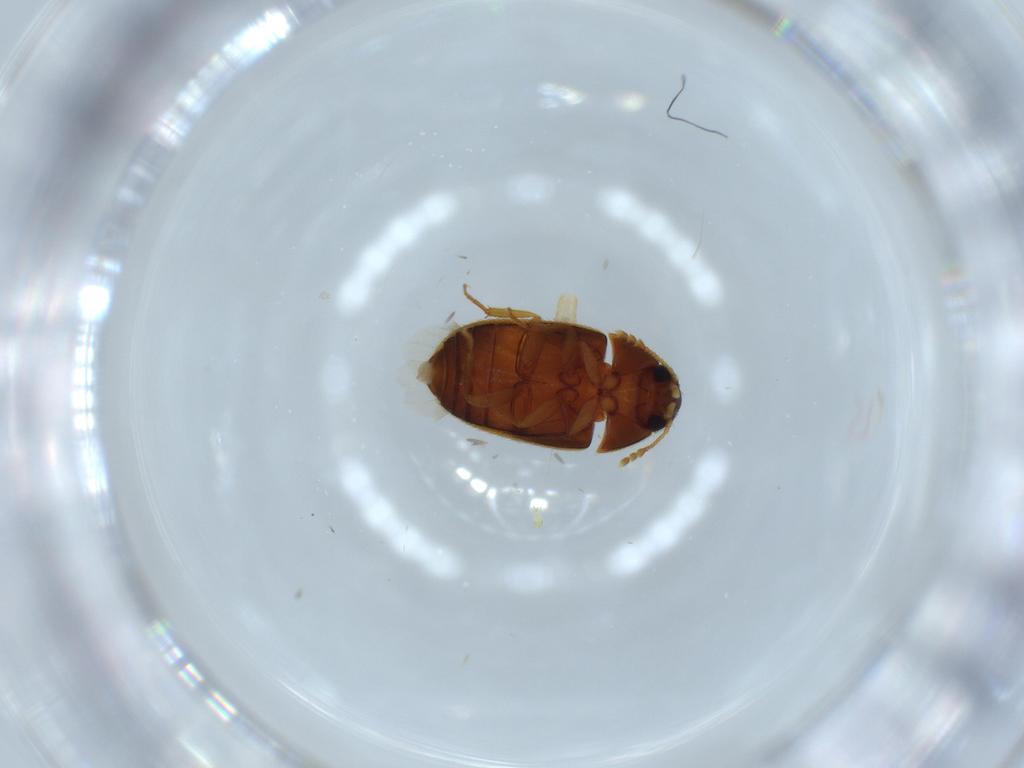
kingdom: Animalia
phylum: Arthropoda
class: Insecta
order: Coleoptera
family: Mycetophagidae
